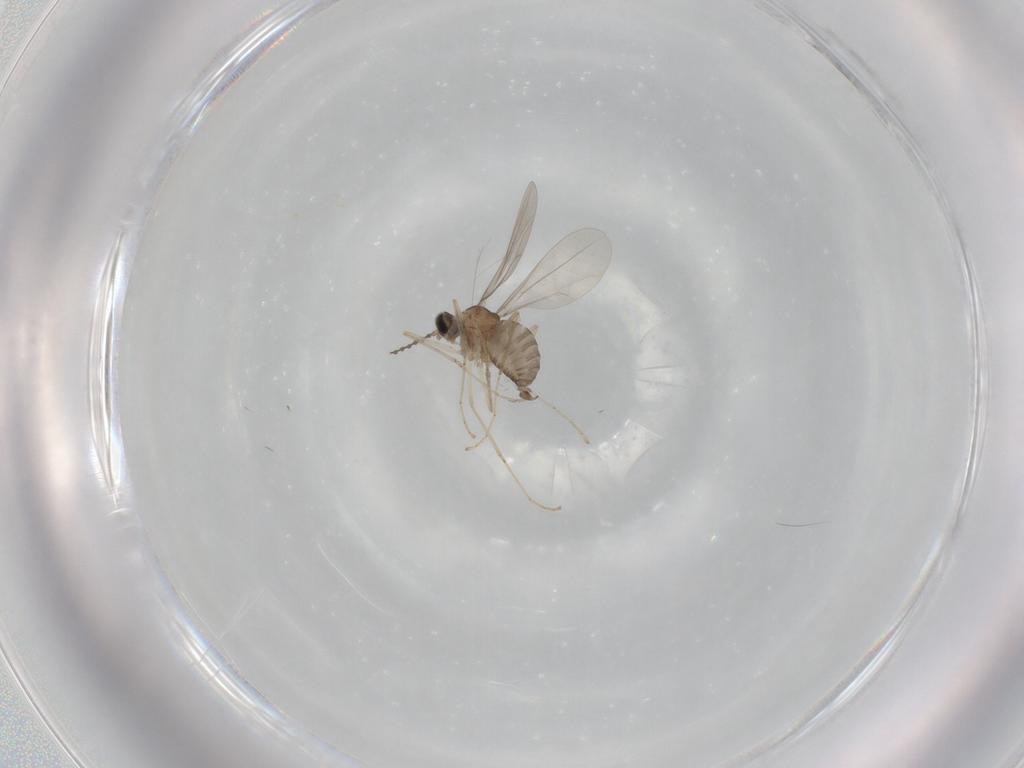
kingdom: Animalia
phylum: Arthropoda
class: Insecta
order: Diptera
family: Cecidomyiidae
